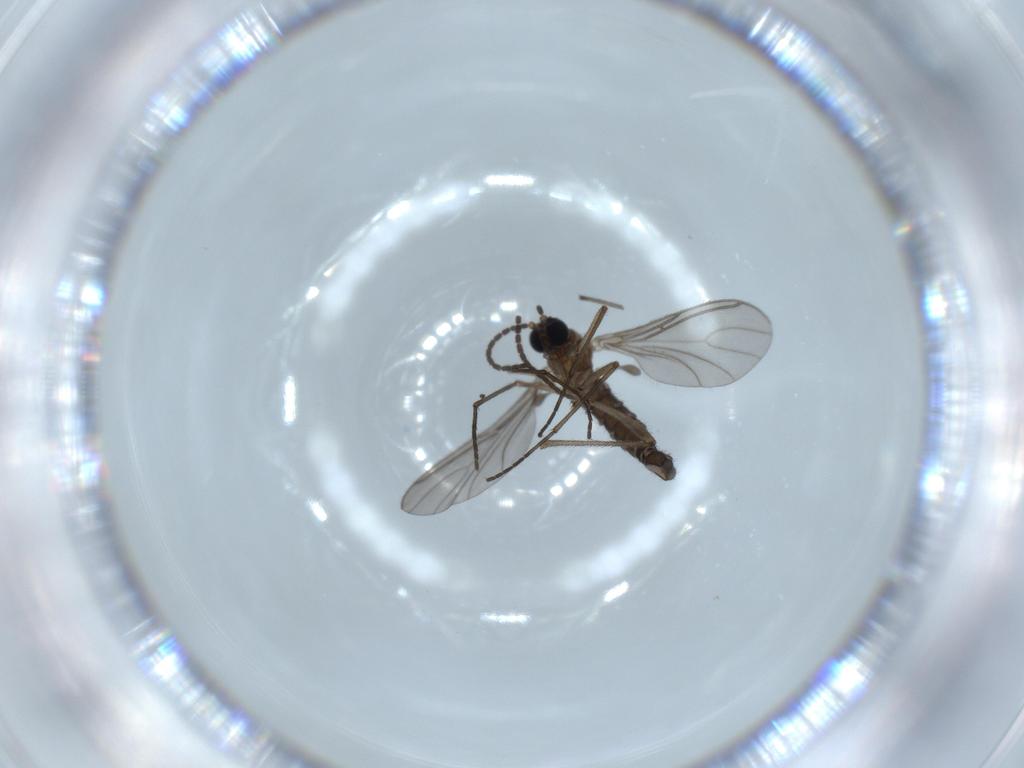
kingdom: Animalia
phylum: Arthropoda
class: Insecta
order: Diptera
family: Sciaridae
